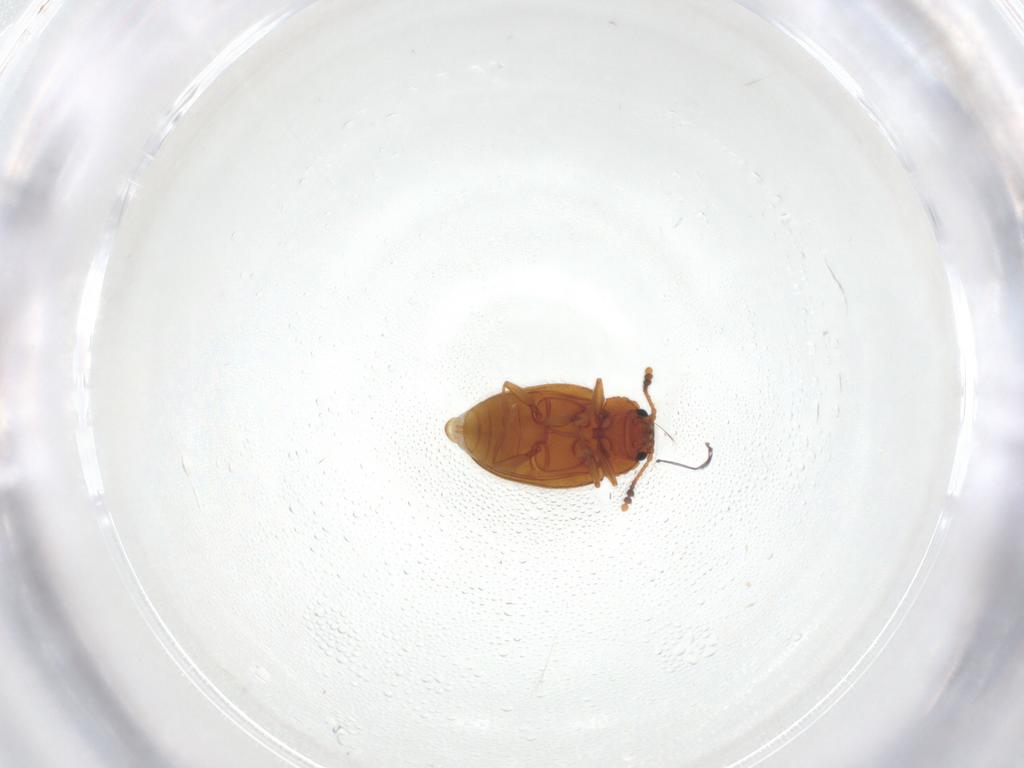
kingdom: Animalia
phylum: Arthropoda
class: Insecta
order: Coleoptera
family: Erotylidae
